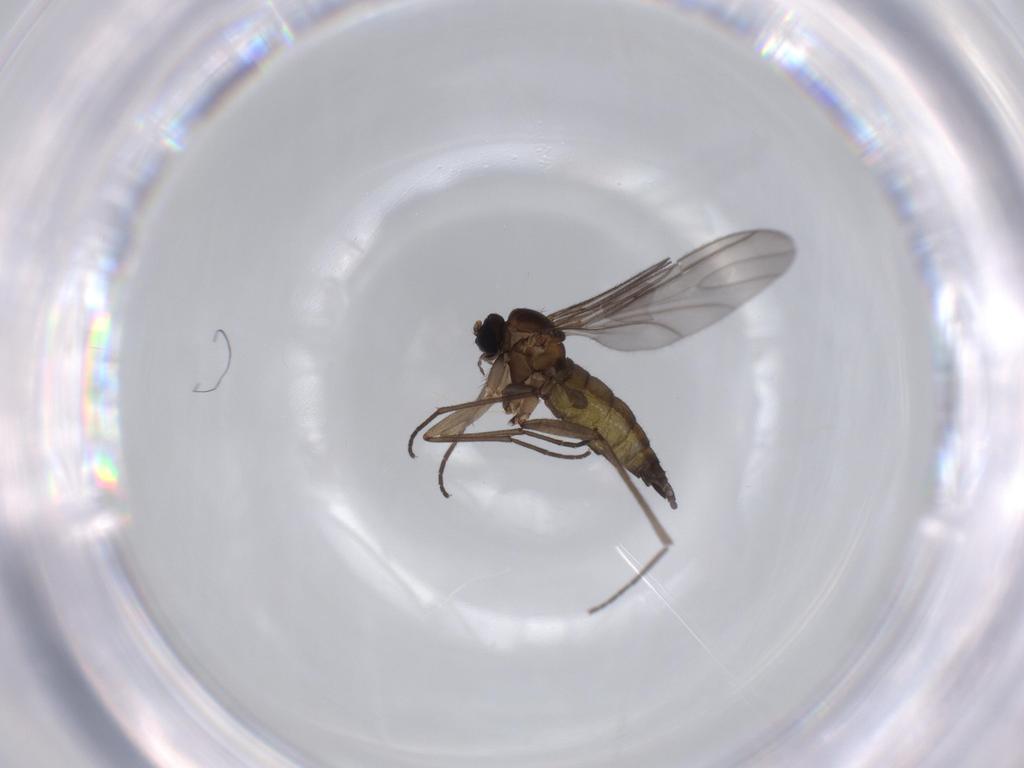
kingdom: Animalia
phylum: Arthropoda
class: Insecta
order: Diptera
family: Sciaridae
